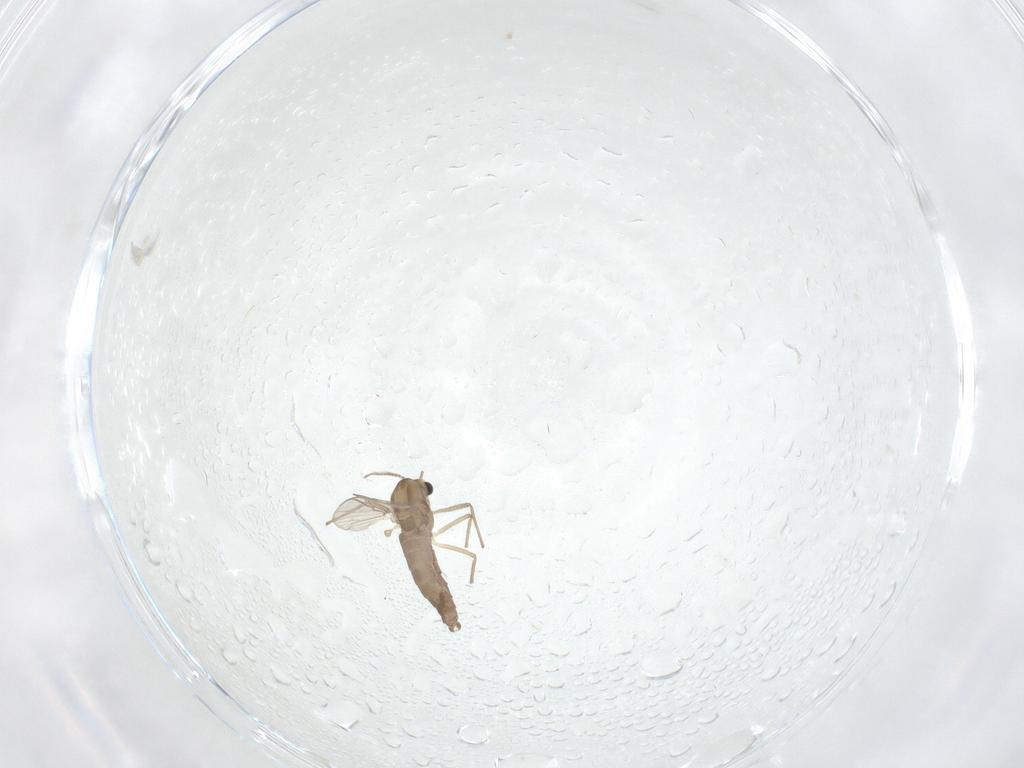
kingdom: Animalia
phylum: Arthropoda
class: Insecta
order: Diptera
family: Chironomidae
